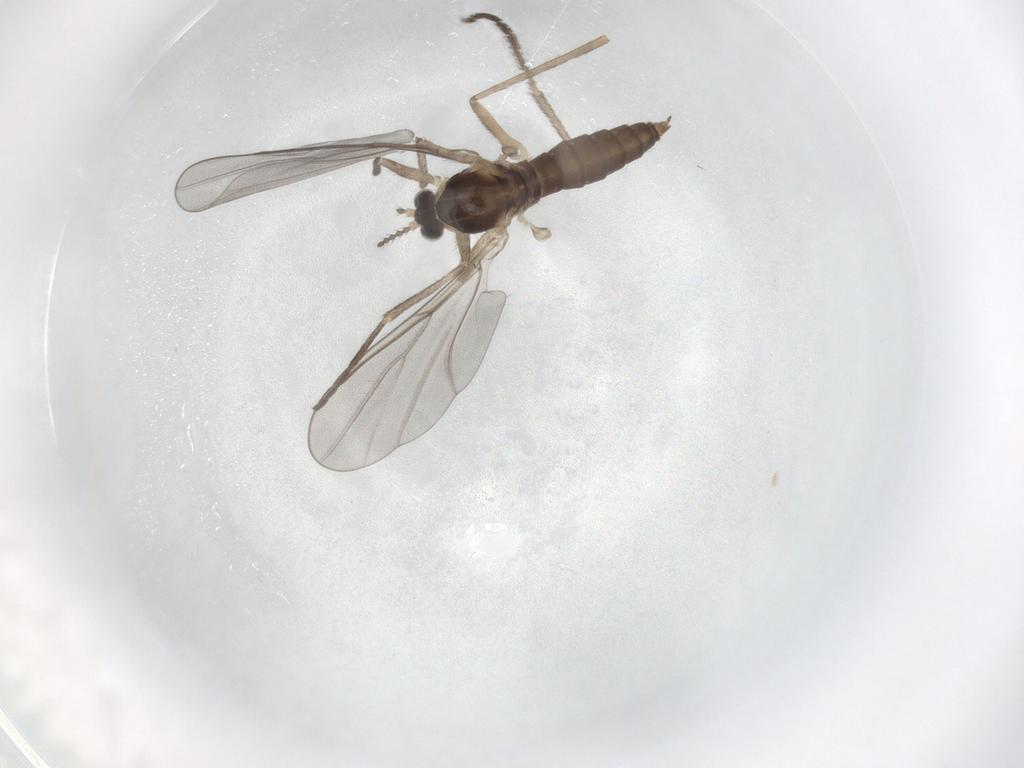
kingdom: Animalia
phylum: Arthropoda
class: Insecta
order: Diptera
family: Cecidomyiidae
